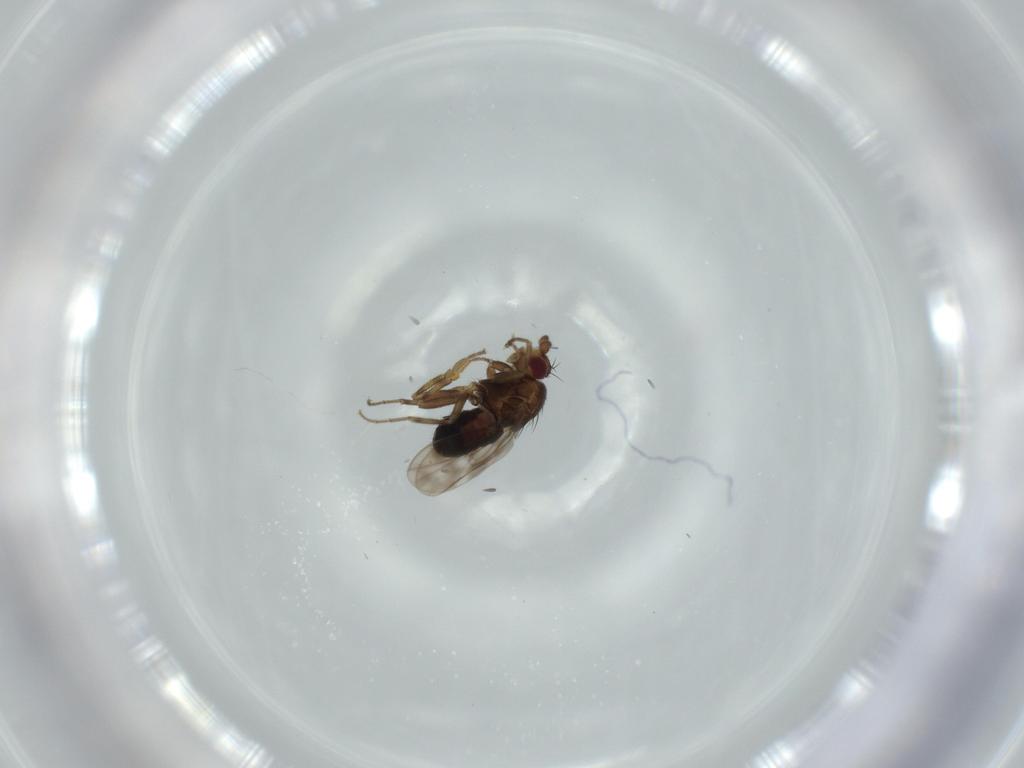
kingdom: Animalia
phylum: Arthropoda
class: Insecta
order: Diptera
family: Sphaeroceridae
